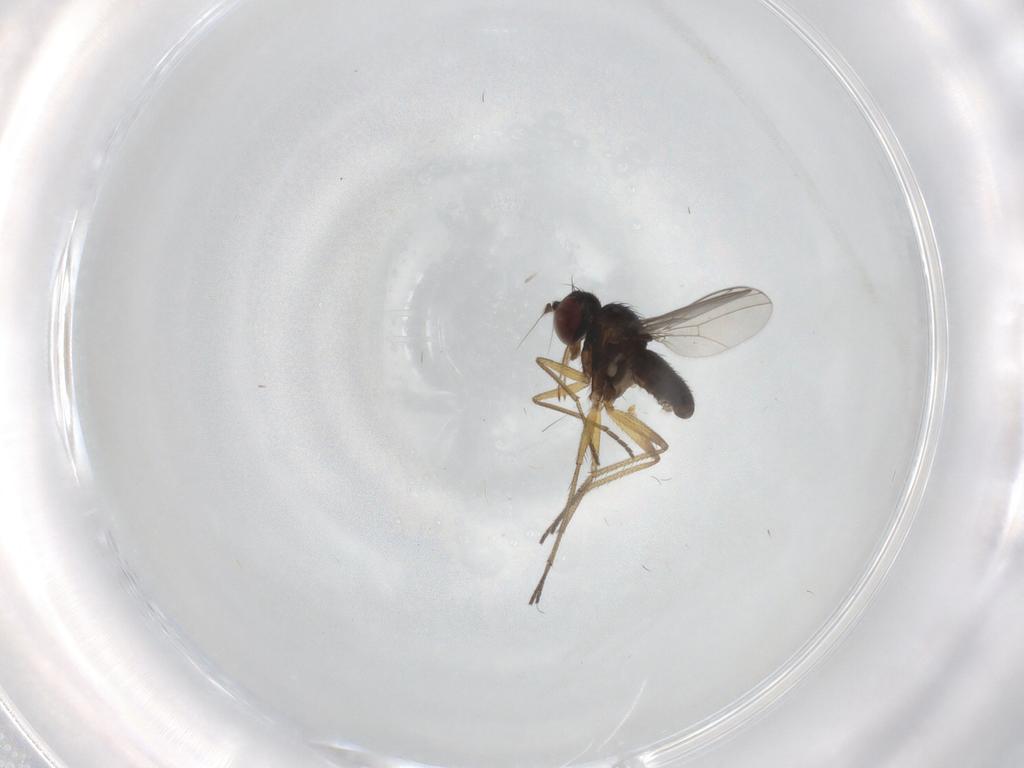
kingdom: Animalia
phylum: Arthropoda
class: Insecta
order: Diptera
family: Dolichopodidae
